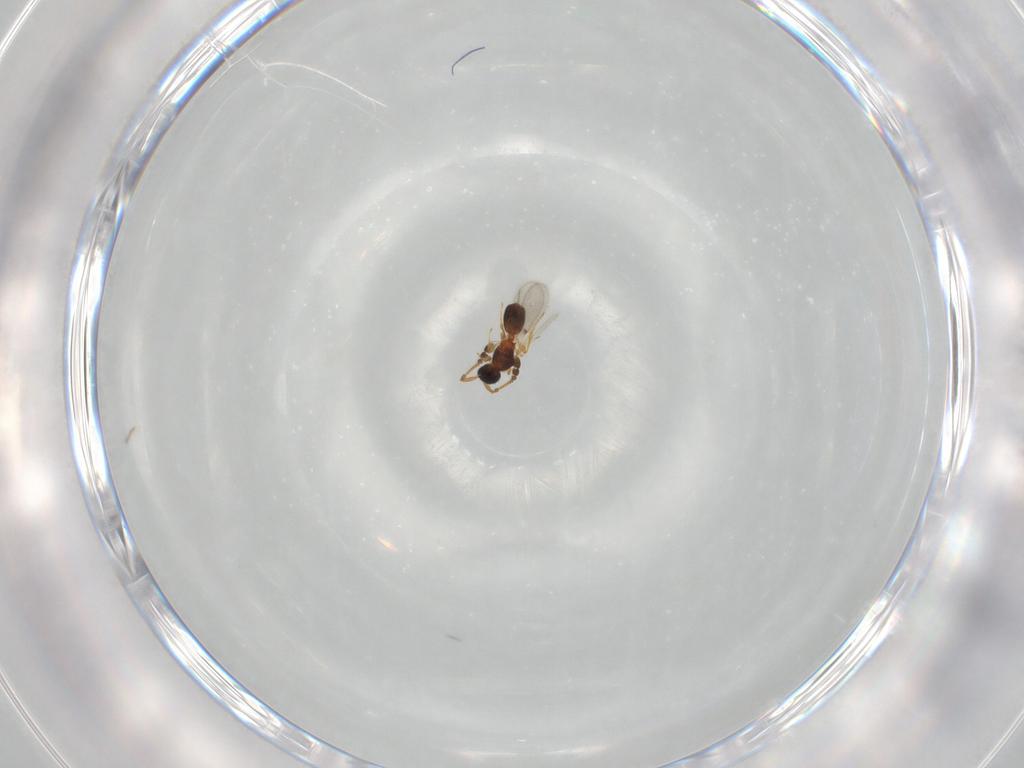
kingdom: Animalia
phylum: Arthropoda
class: Insecta
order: Hymenoptera
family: Diapriidae
